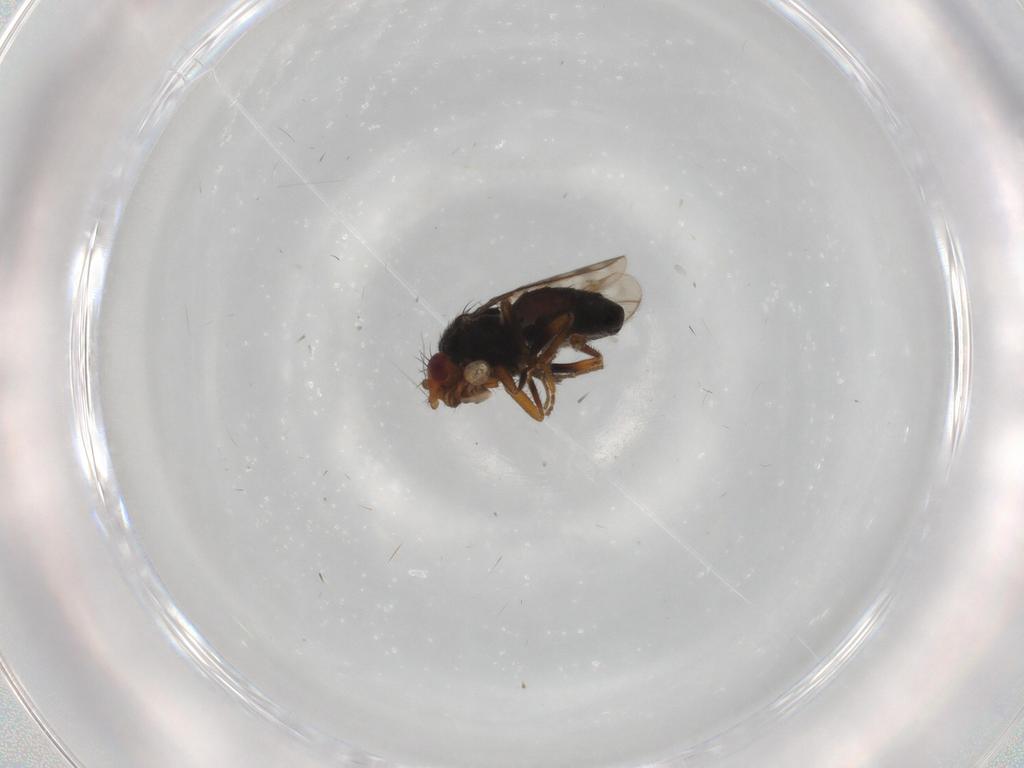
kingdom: Animalia
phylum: Arthropoda
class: Insecta
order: Diptera
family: Sphaeroceridae
